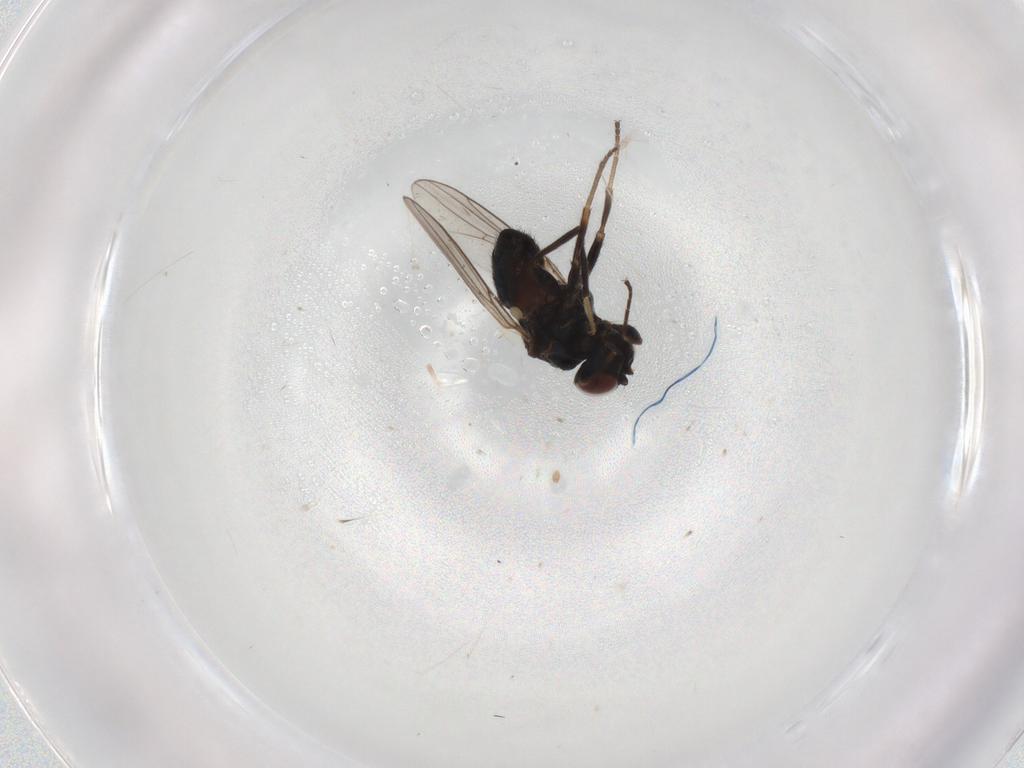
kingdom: Animalia
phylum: Arthropoda
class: Insecta
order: Diptera
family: Chloropidae
